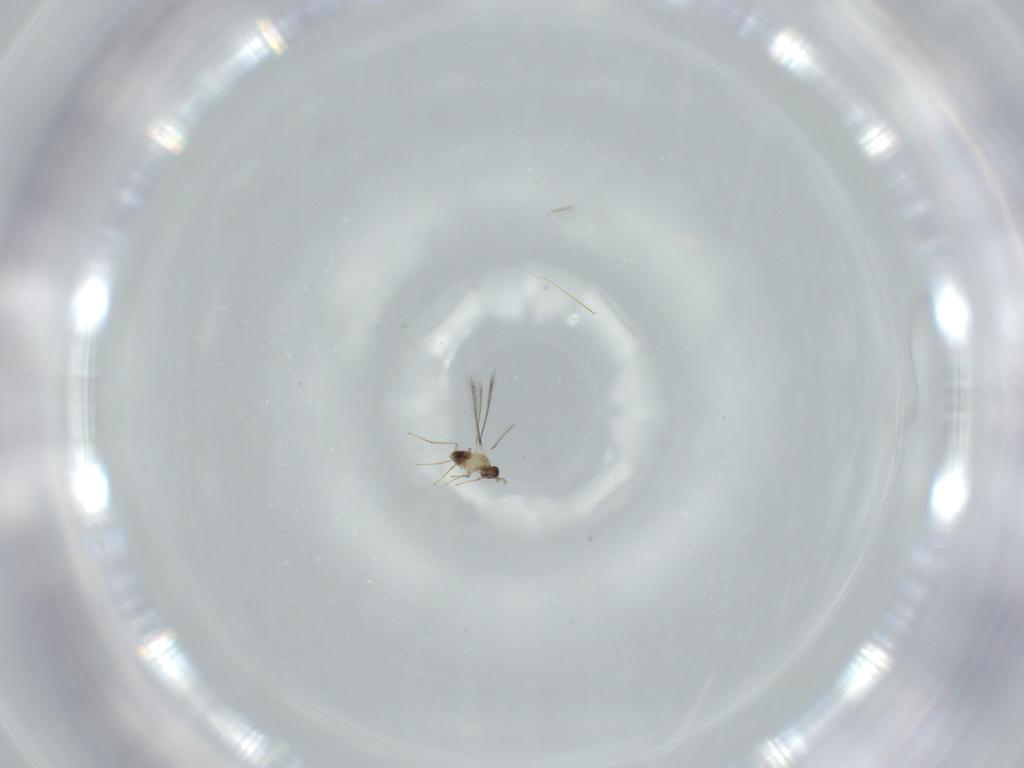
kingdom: Animalia
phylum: Arthropoda
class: Insecta
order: Hymenoptera
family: Mymaridae
